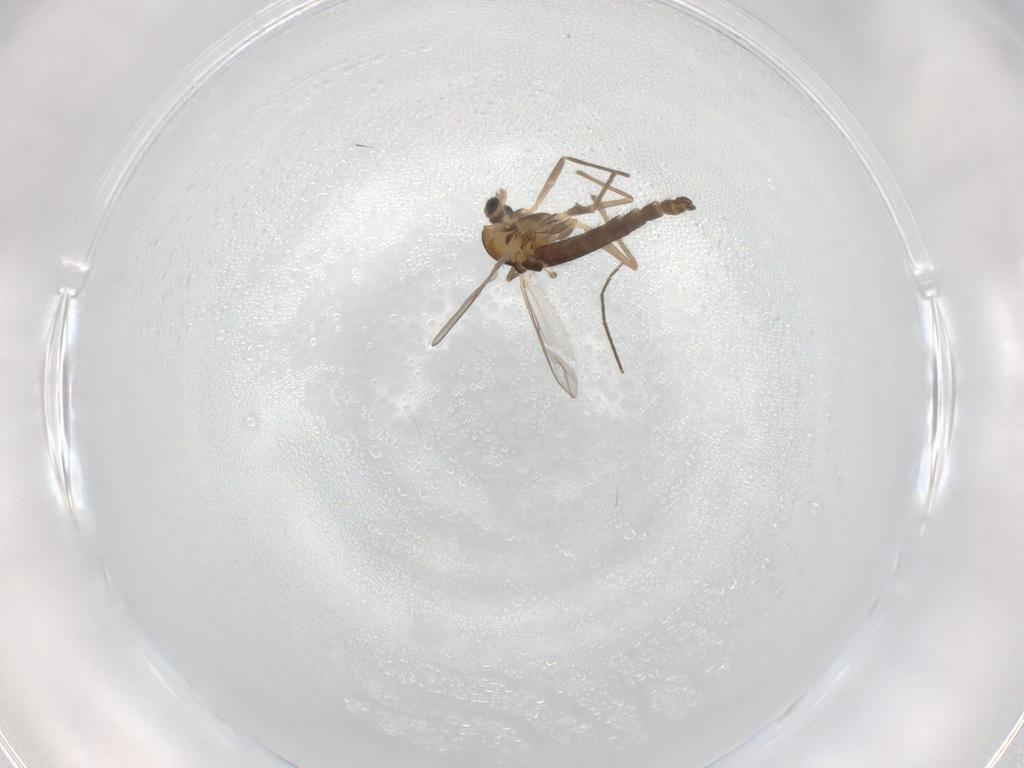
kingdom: Animalia
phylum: Arthropoda
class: Insecta
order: Diptera
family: Chironomidae
